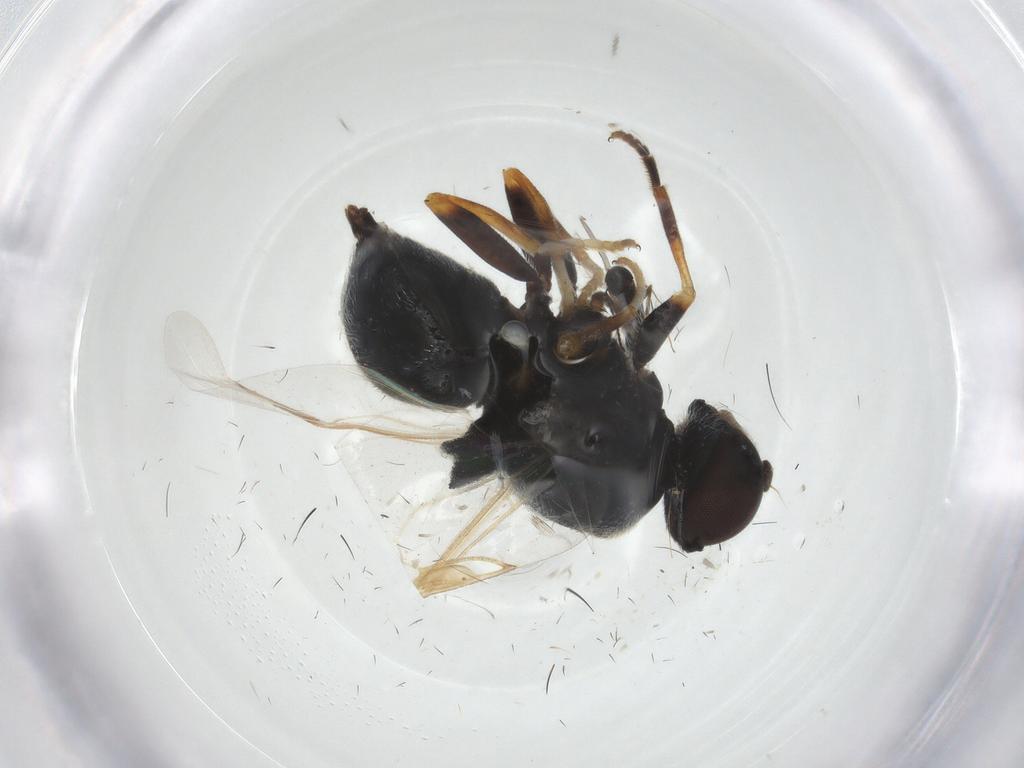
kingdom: Animalia
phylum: Arthropoda
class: Insecta
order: Diptera
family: Stratiomyidae
